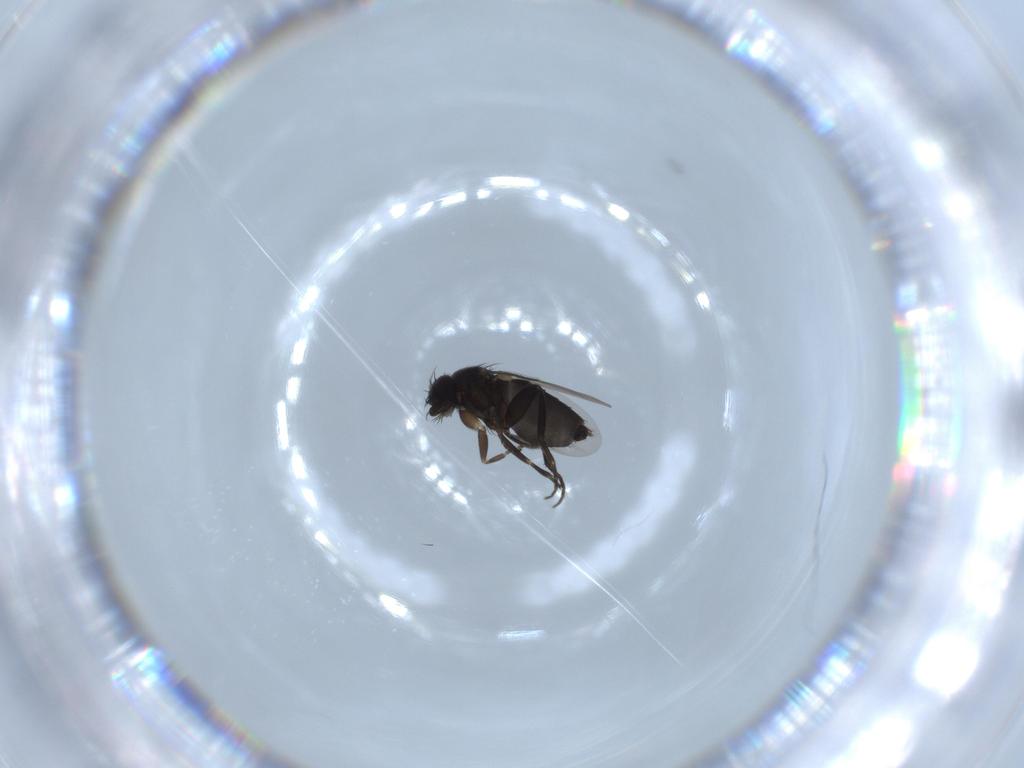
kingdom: Animalia
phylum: Arthropoda
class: Insecta
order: Diptera
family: Phoridae
